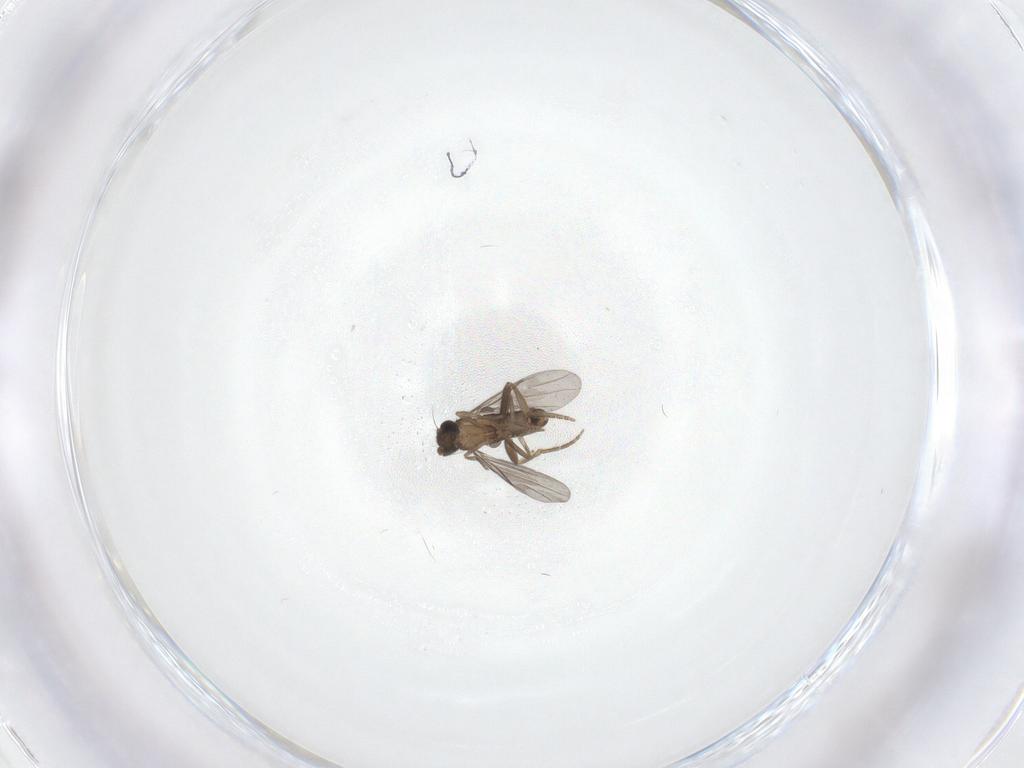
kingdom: Animalia
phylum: Arthropoda
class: Insecta
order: Diptera
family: Cecidomyiidae
